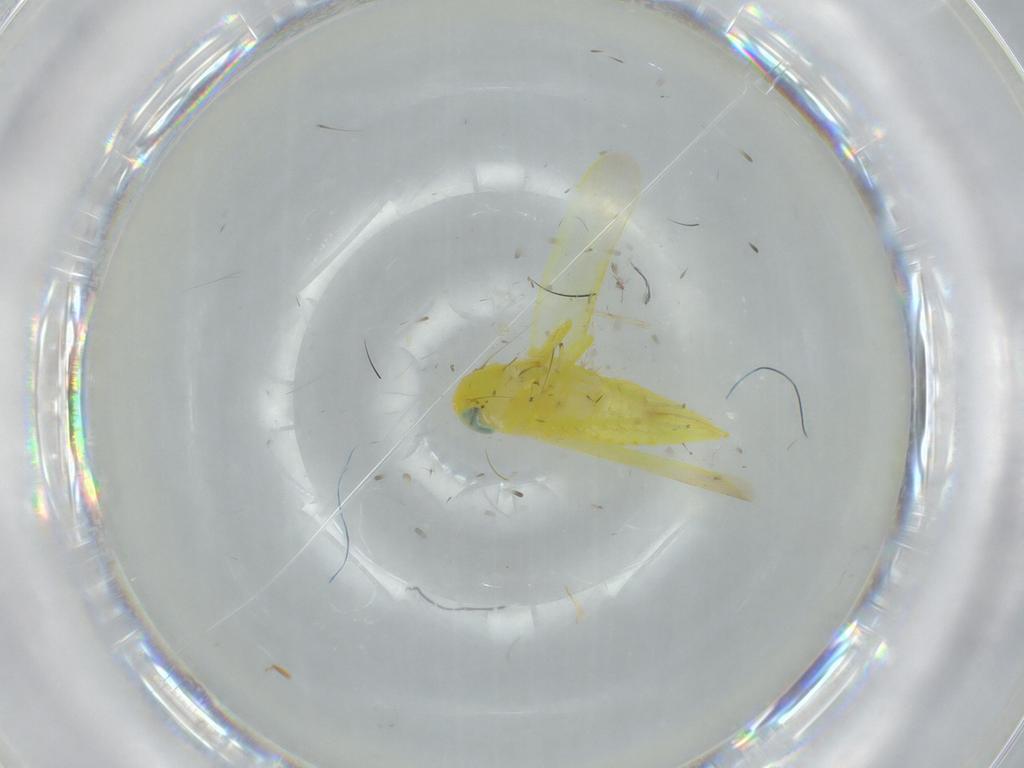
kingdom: Animalia
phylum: Arthropoda
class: Insecta
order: Hemiptera
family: Cicadellidae
